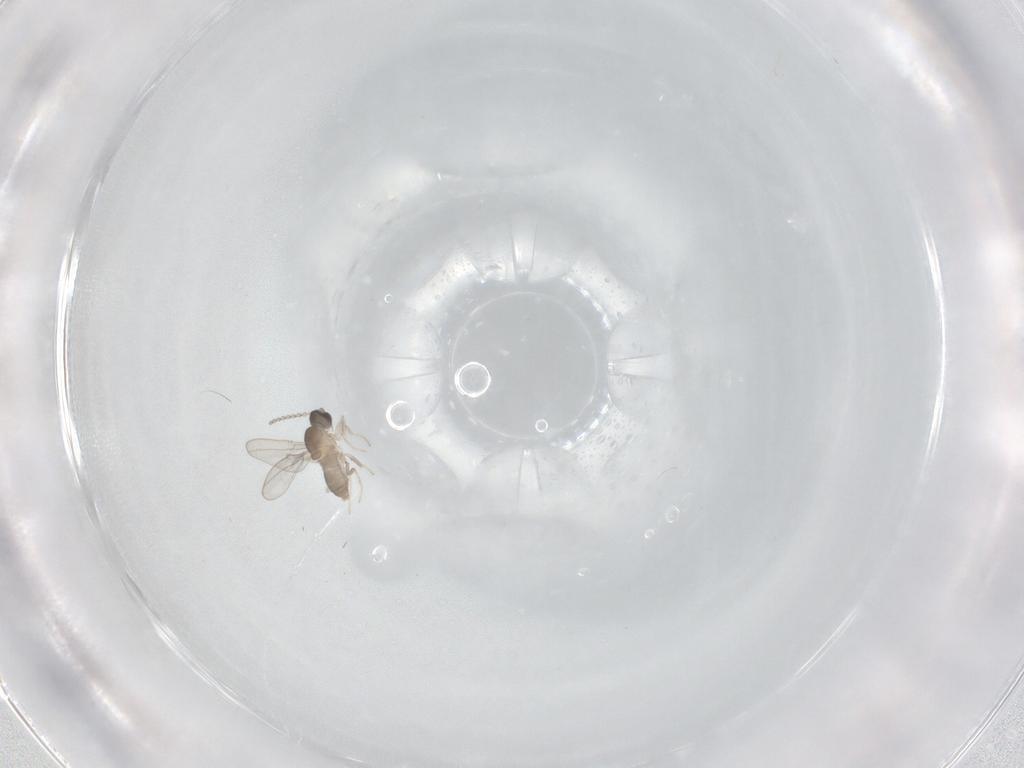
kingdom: Animalia
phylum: Arthropoda
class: Insecta
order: Diptera
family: Cecidomyiidae
